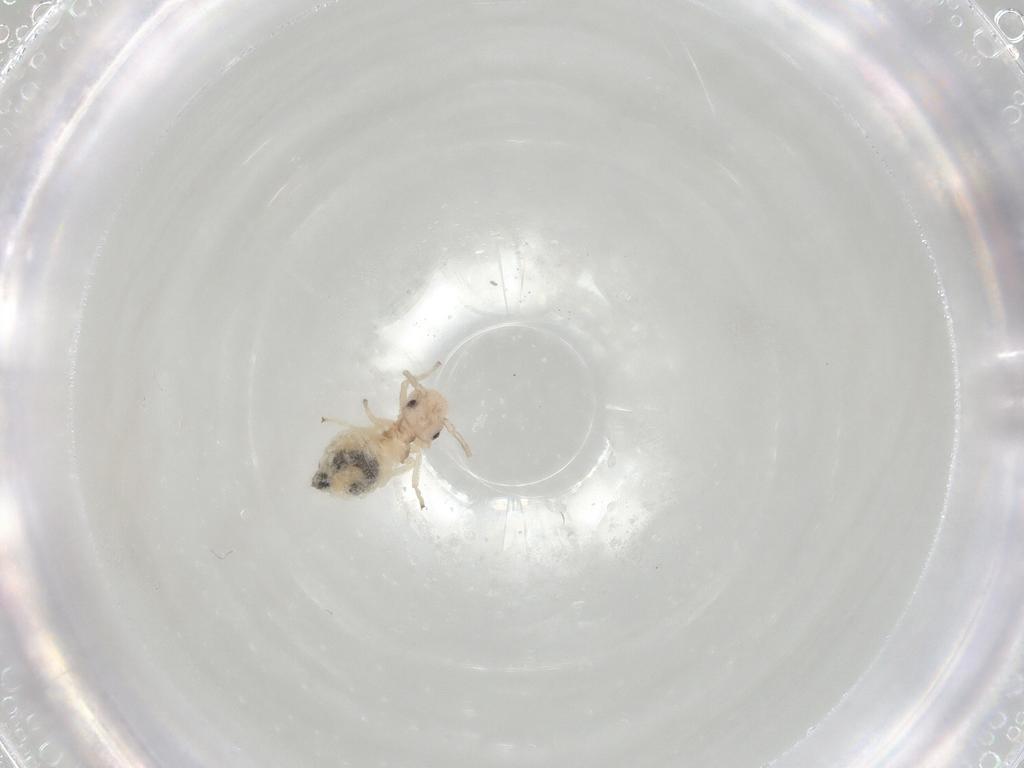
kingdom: Animalia
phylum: Arthropoda
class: Insecta
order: Psocodea
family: Amphipsocidae
